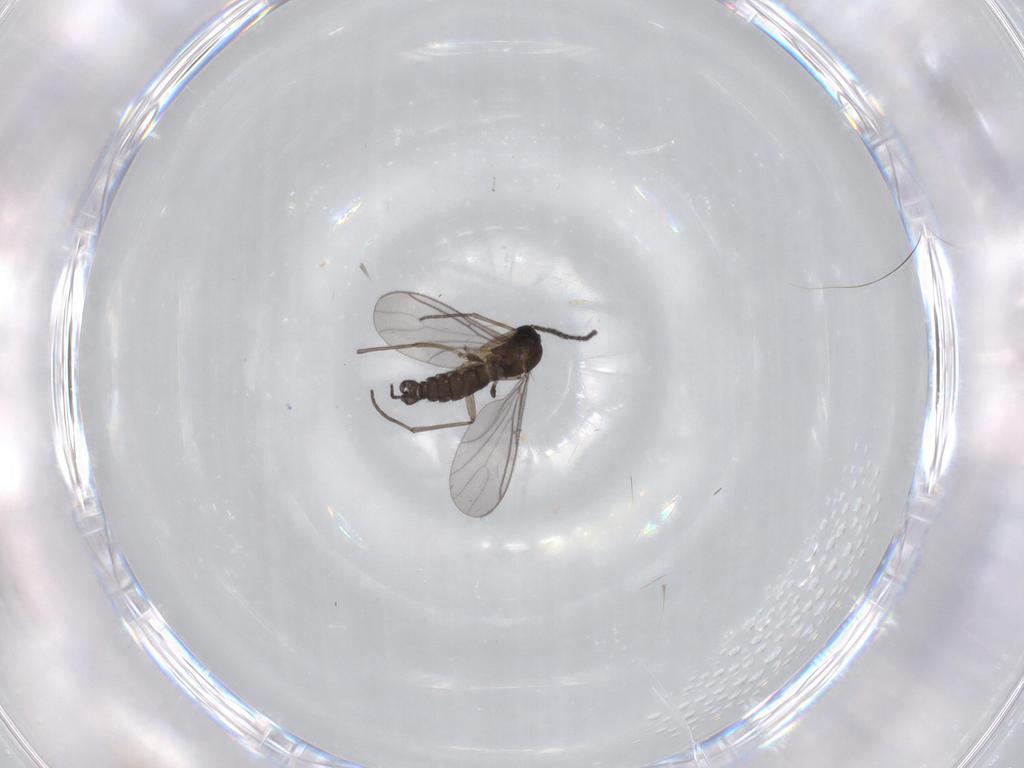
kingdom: Animalia
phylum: Arthropoda
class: Insecta
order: Diptera
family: Sciaridae
